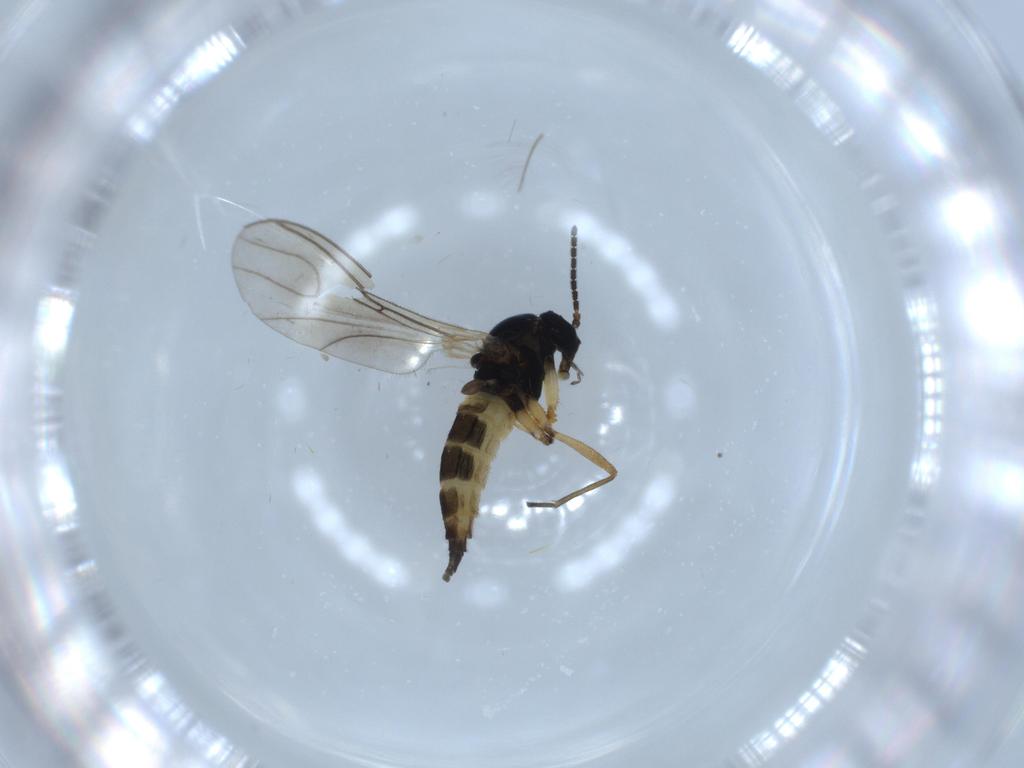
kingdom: Animalia
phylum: Arthropoda
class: Insecta
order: Diptera
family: Sciaridae
